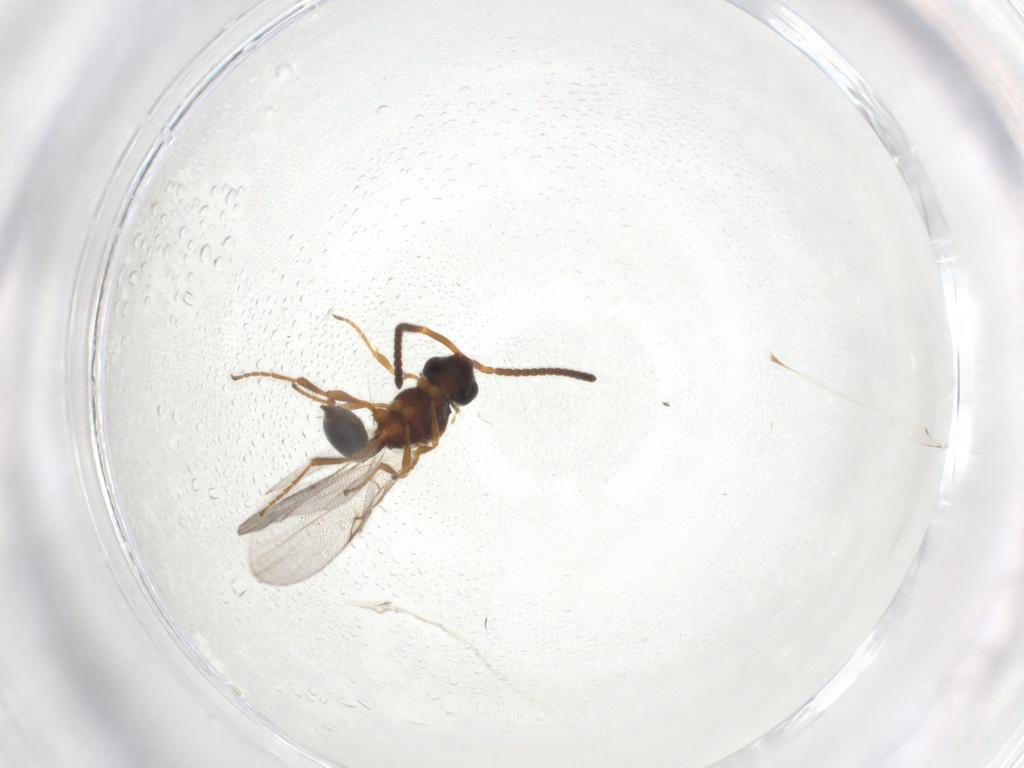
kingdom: Animalia
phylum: Arthropoda
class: Insecta
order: Hymenoptera
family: Diapriidae
